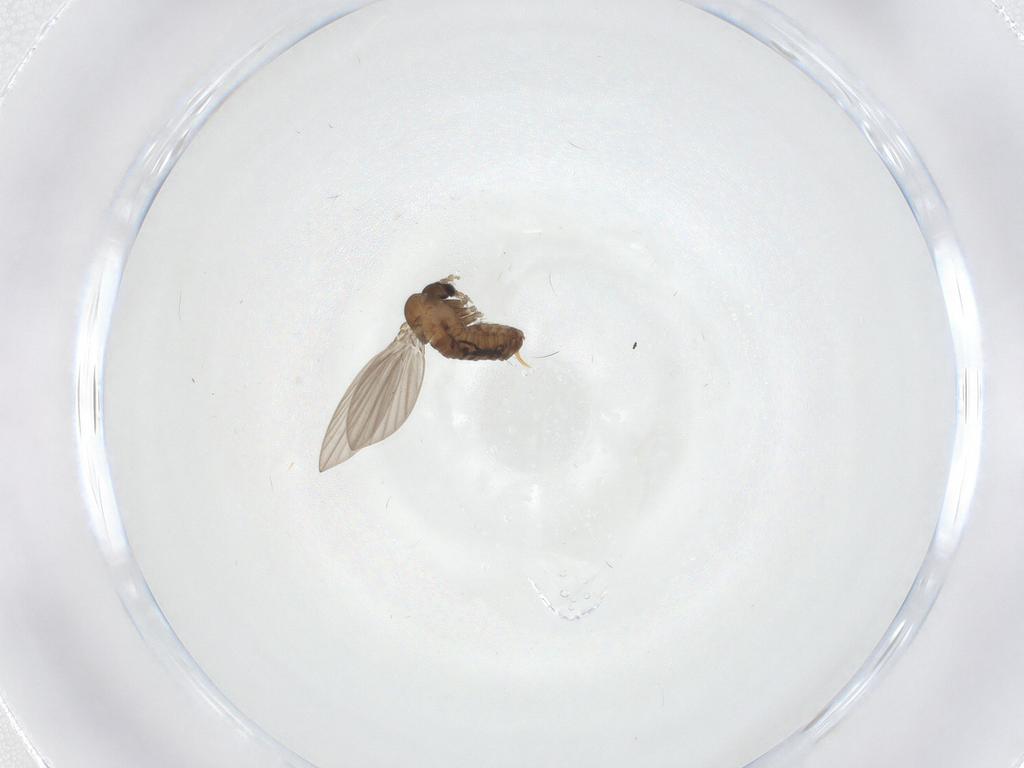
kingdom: Animalia
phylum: Arthropoda
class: Insecta
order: Diptera
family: Psychodidae
